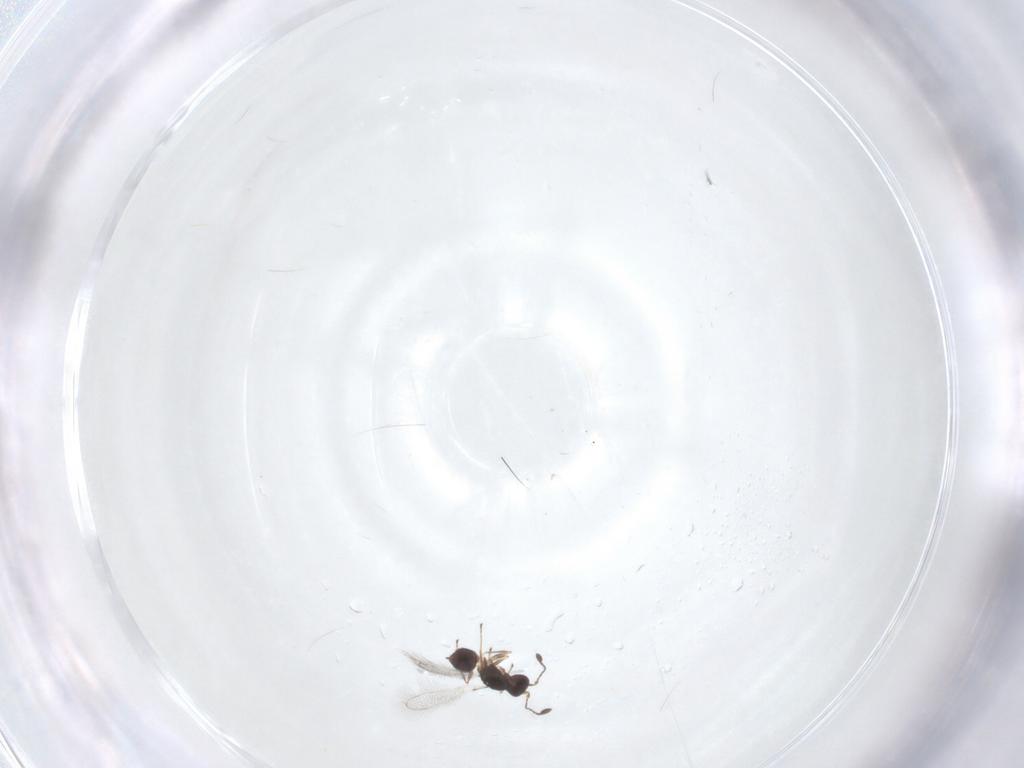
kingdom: Animalia
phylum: Arthropoda
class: Insecta
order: Hymenoptera
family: Mymaridae
